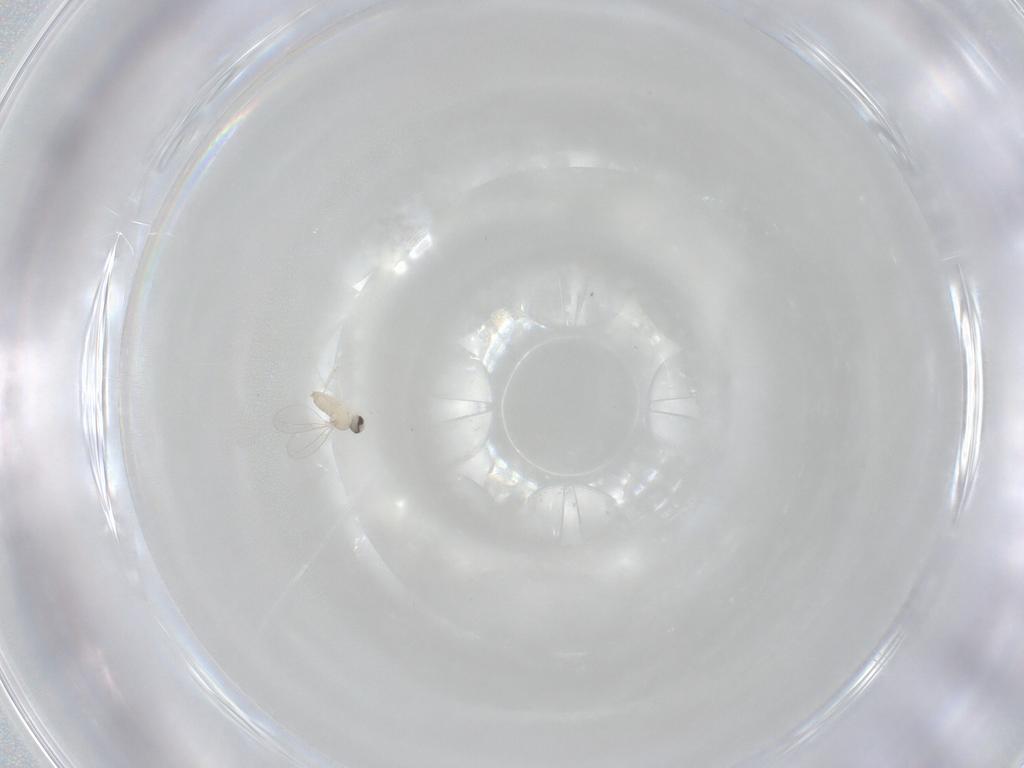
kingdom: Animalia
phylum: Arthropoda
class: Insecta
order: Diptera
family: Cecidomyiidae
